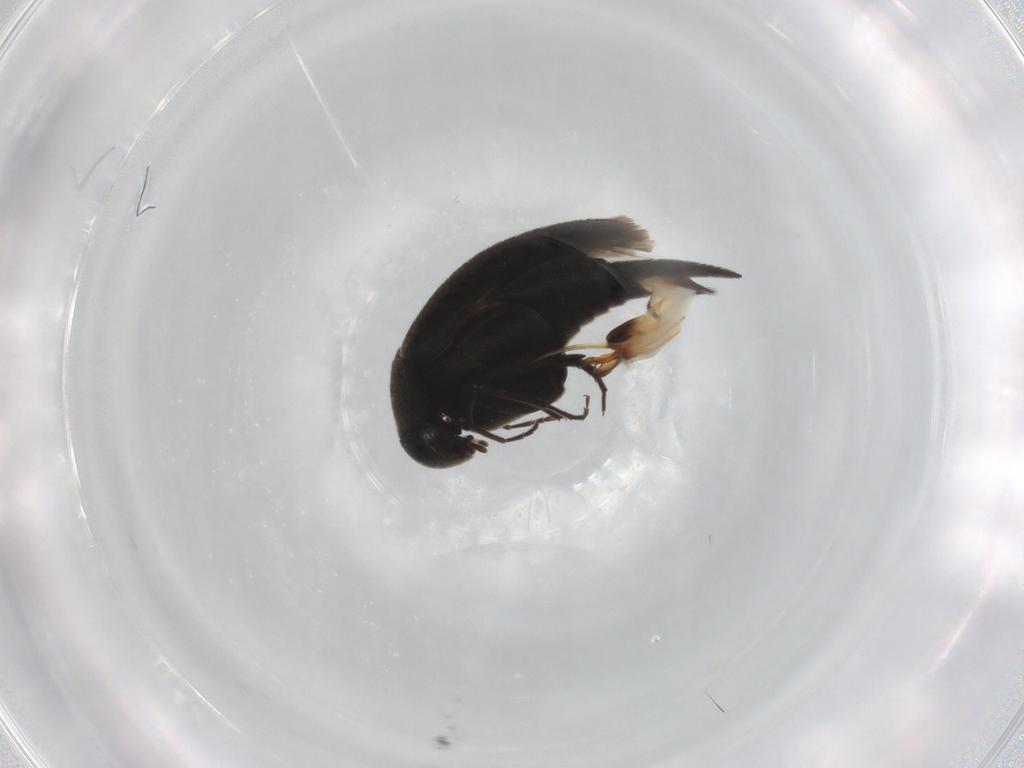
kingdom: Animalia
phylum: Arthropoda
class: Insecta
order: Coleoptera
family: Mordellidae
